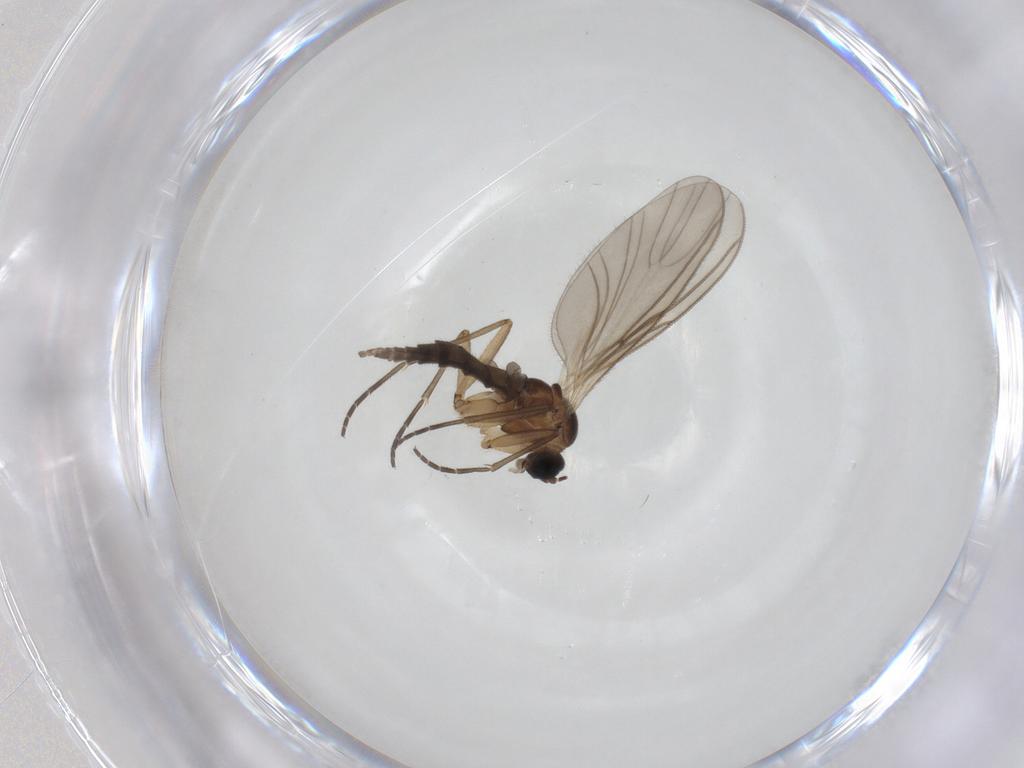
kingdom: Animalia
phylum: Arthropoda
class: Insecta
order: Diptera
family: Sciaridae
